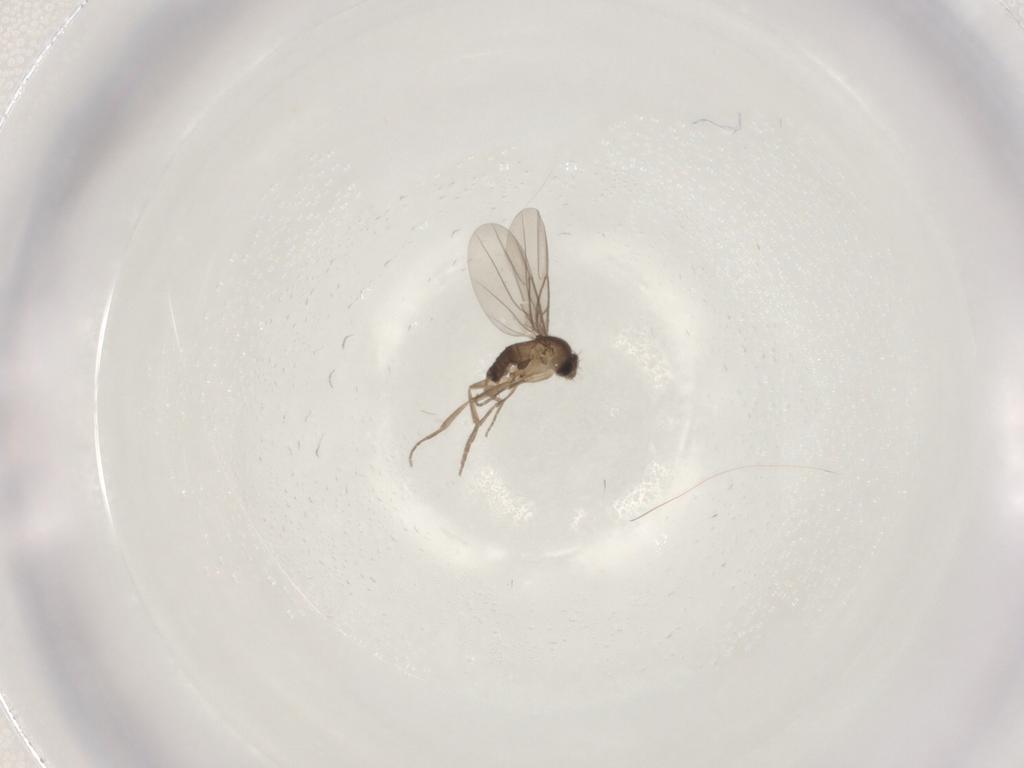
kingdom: Animalia
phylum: Arthropoda
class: Insecta
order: Diptera
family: Phoridae
